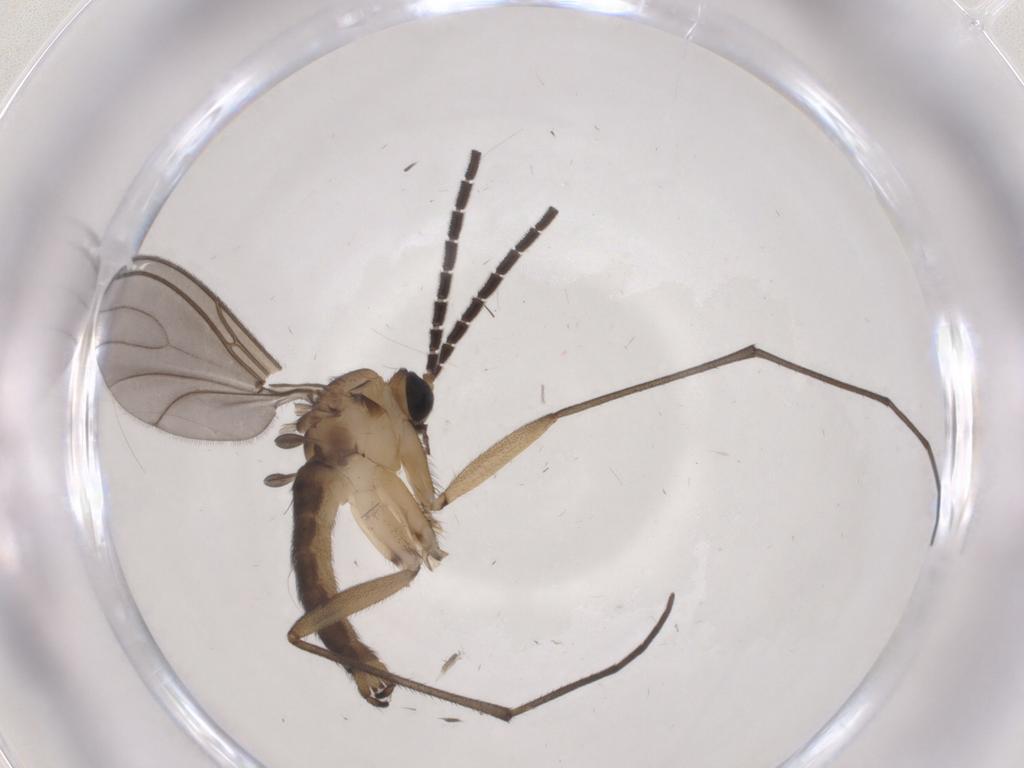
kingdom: Animalia
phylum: Arthropoda
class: Insecta
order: Diptera
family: Sciaridae
